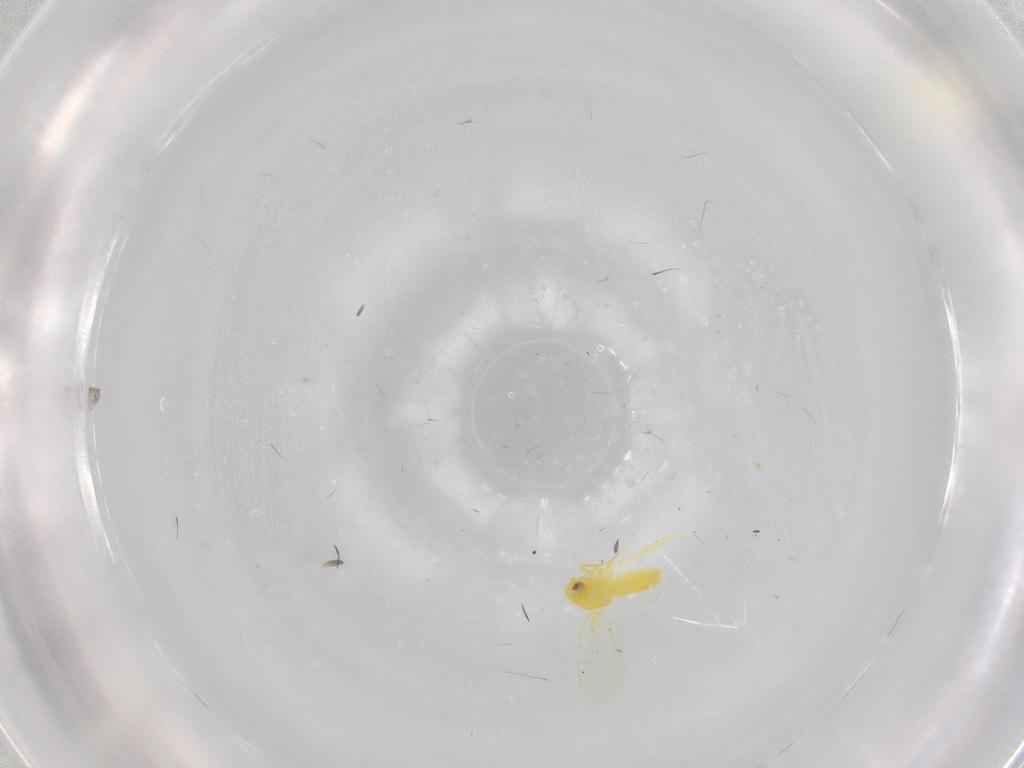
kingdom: Animalia
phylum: Arthropoda
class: Insecta
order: Hemiptera
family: Aleyrodidae
